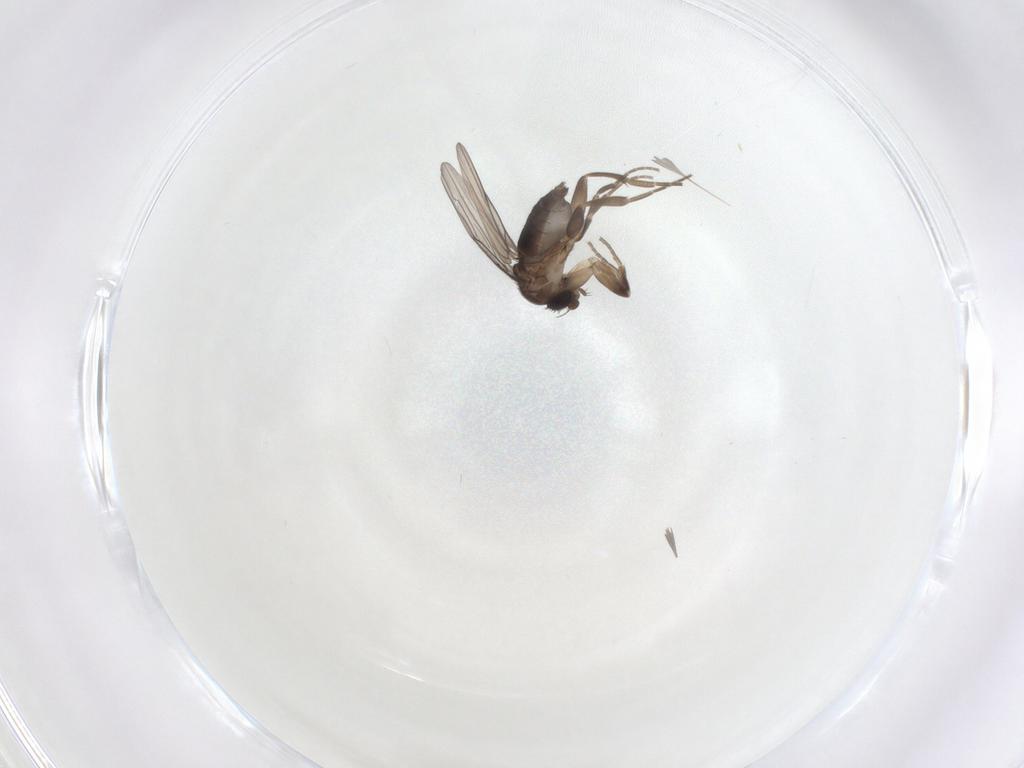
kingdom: Animalia
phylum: Arthropoda
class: Insecta
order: Diptera
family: Phoridae
